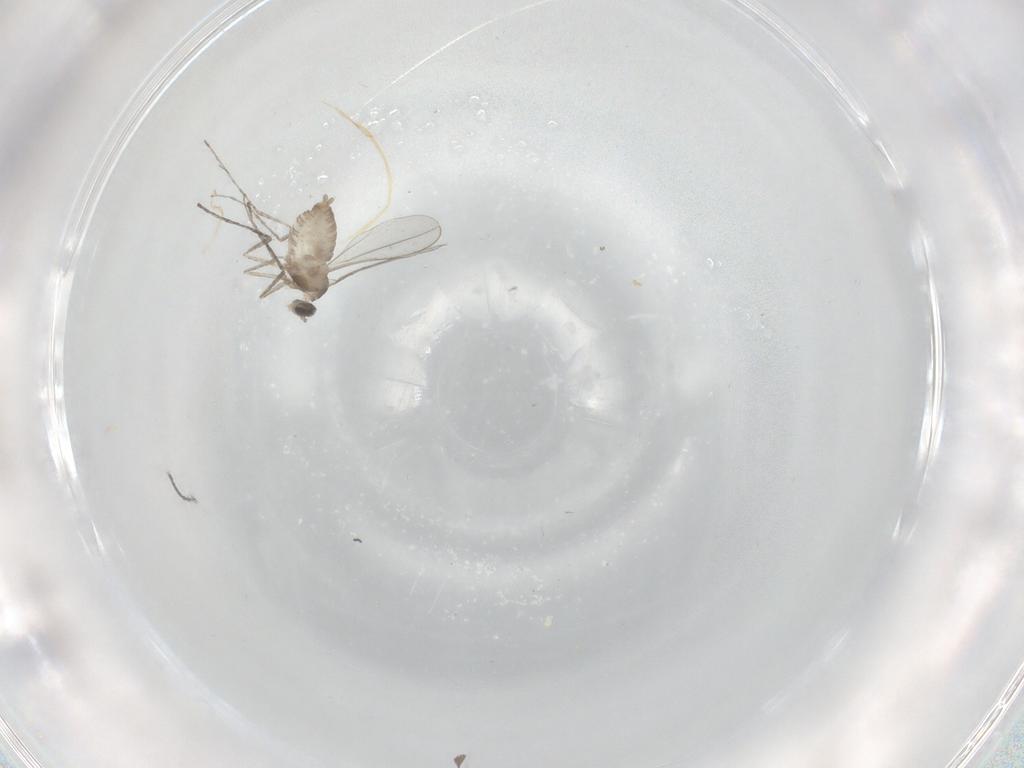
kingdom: Animalia
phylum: Arthropoda
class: Insecta
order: Diptera
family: Cecidomyiidae
